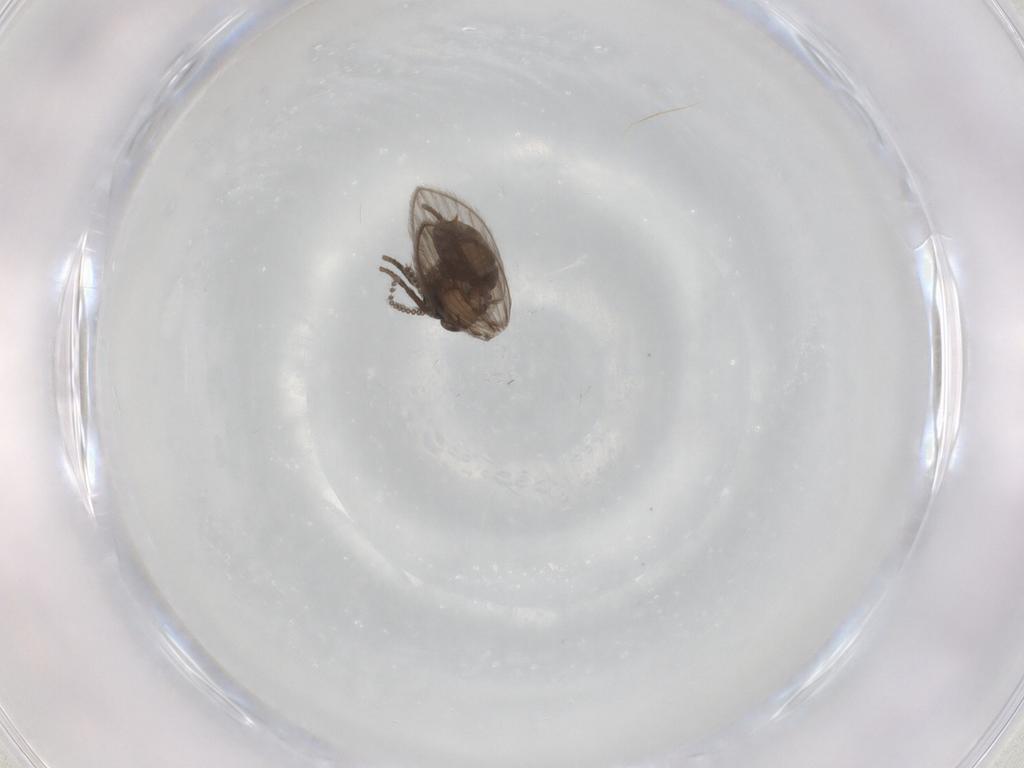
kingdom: Animalia
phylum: Arthropoda
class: Insecta
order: Diptera
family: Psychodidae
